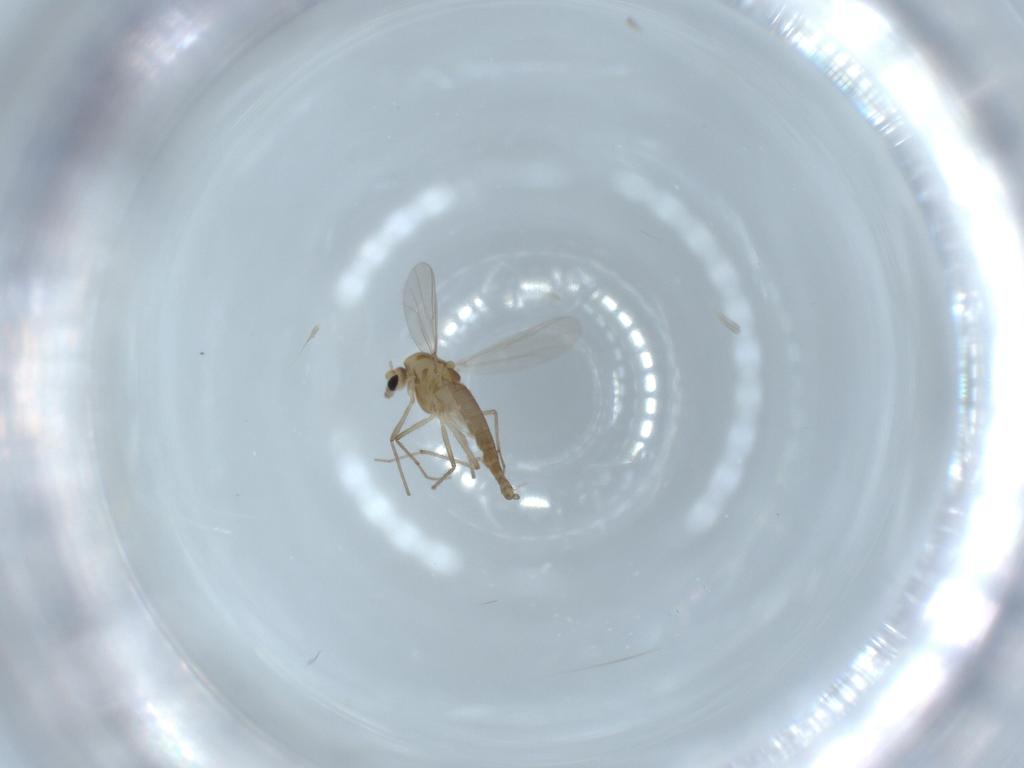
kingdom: Animalia
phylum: Arthropoda
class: Insecta
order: Diptera
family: Chironomidae
